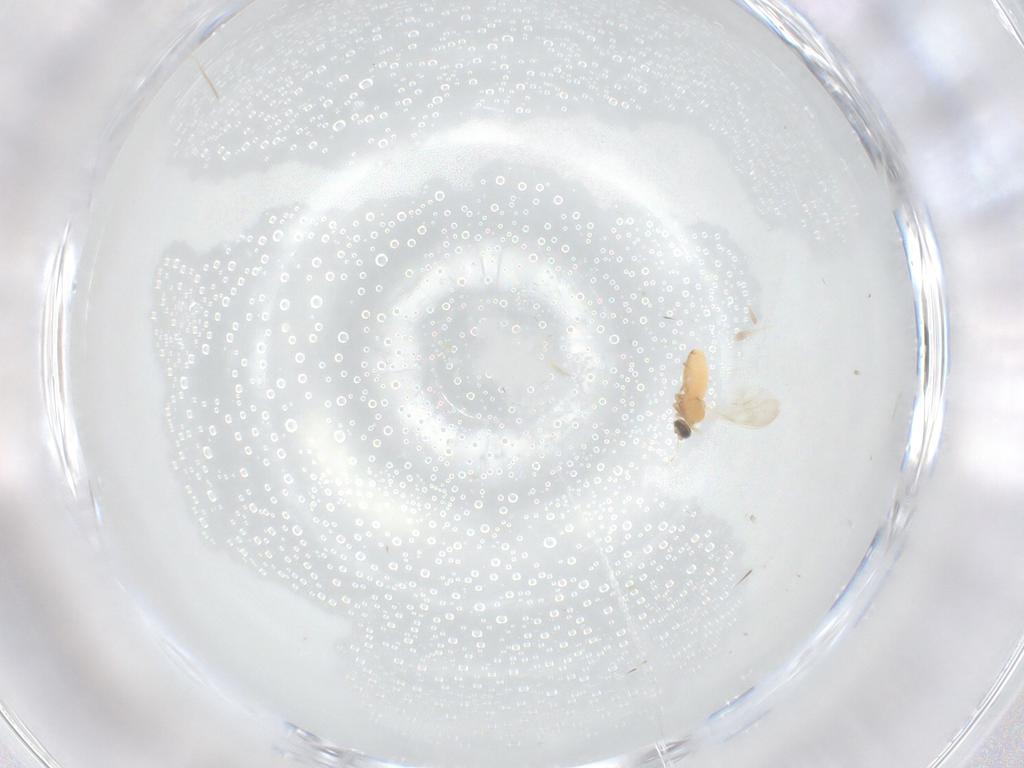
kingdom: Animalia
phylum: Arthropoda
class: Insecta
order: Diptera
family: Cecidomyiidae
